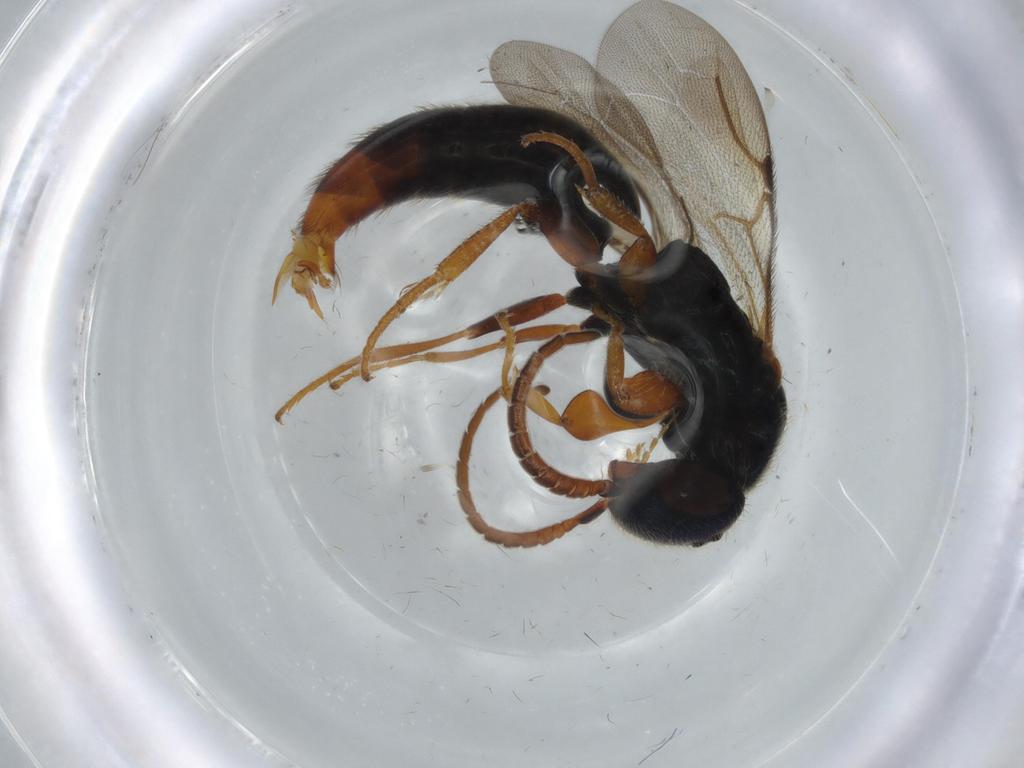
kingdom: Animalia
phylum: Arthropoda
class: Insecta
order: Hymenoptera
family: Bethylidae
